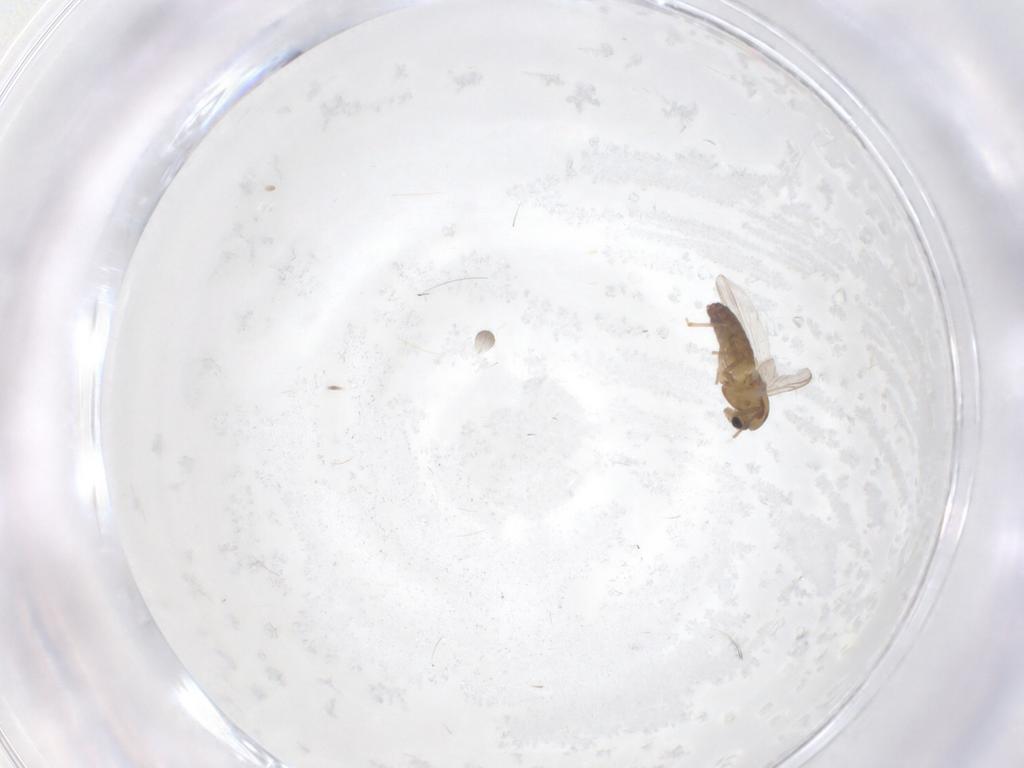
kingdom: Animalia
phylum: Arthropoda
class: Insecta
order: Diptera
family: Chironomidae
